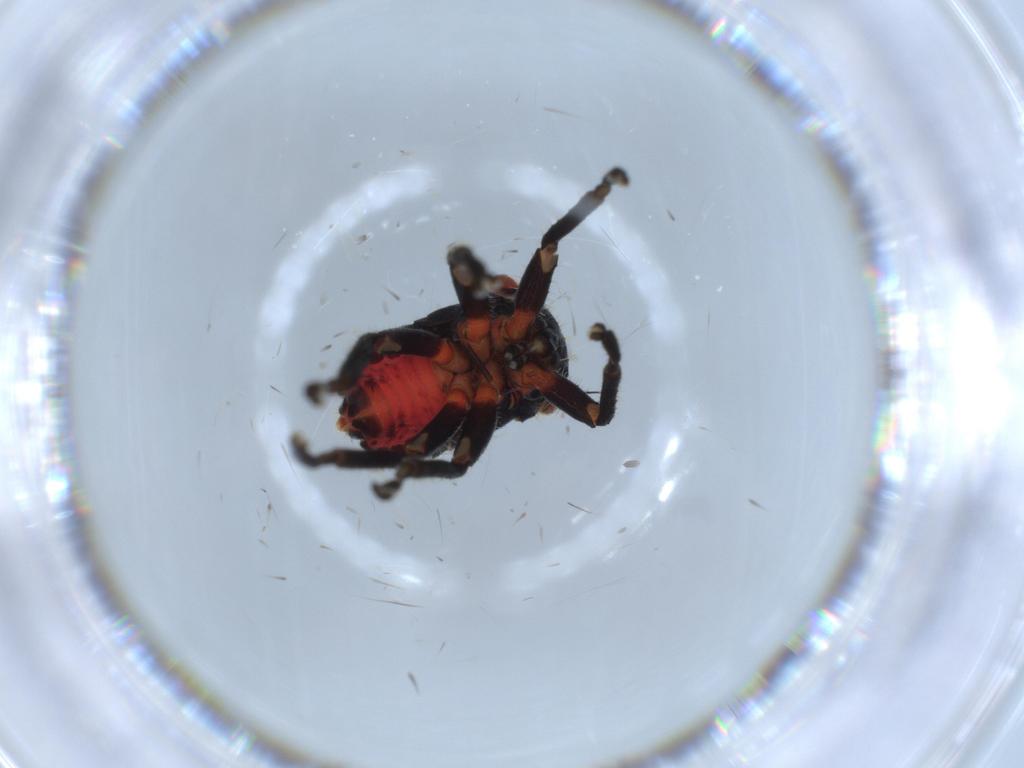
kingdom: Animalia
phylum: Arthropoda
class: Insecta
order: Hemiptera
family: Cicadellidae
